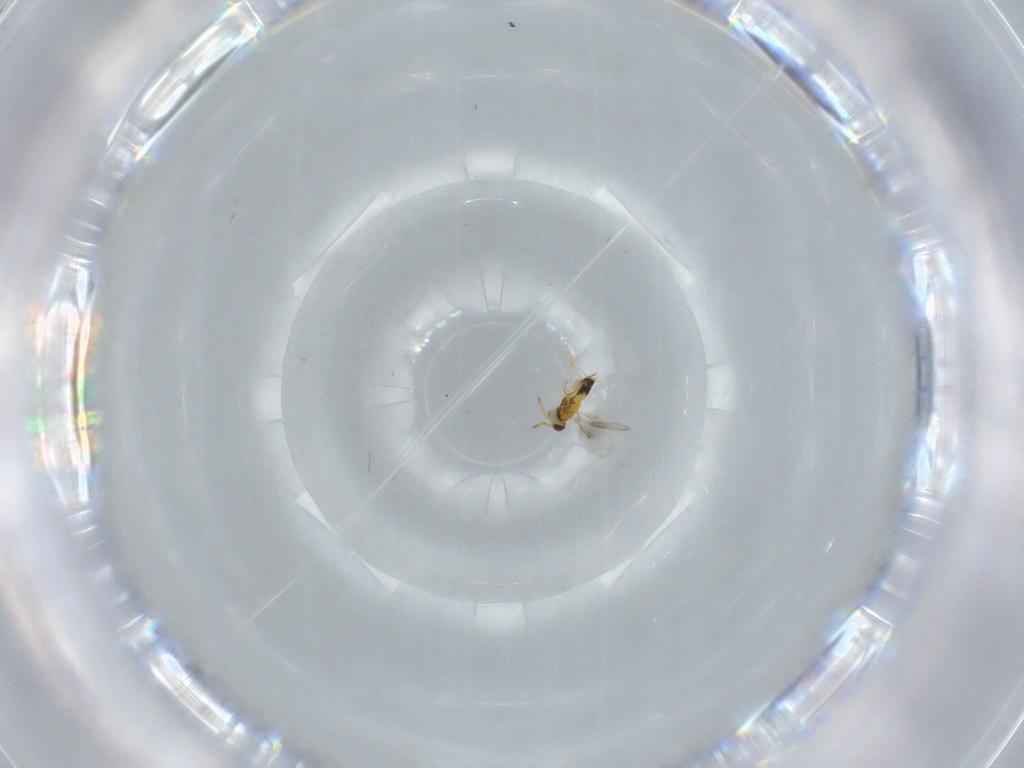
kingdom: Animalia
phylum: Arthropoda
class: Insecta
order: Hymenoptera
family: Aphelinidae
